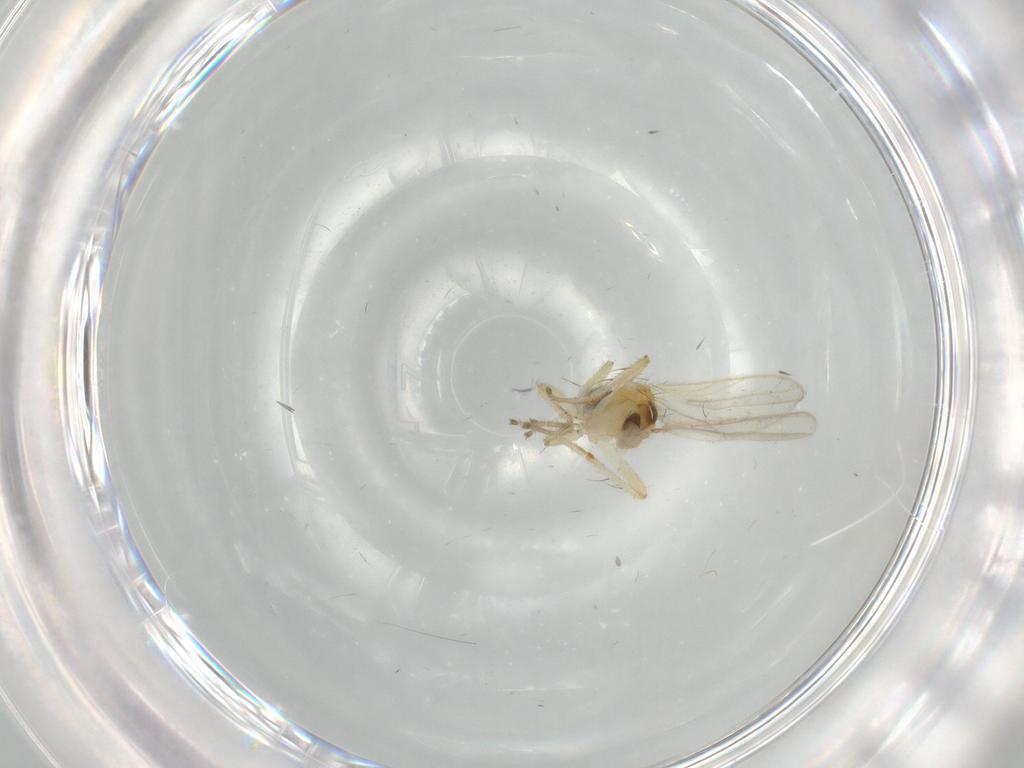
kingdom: Animalia
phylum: Arthropoda
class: Insecta
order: Diptera
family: Hybotidae
